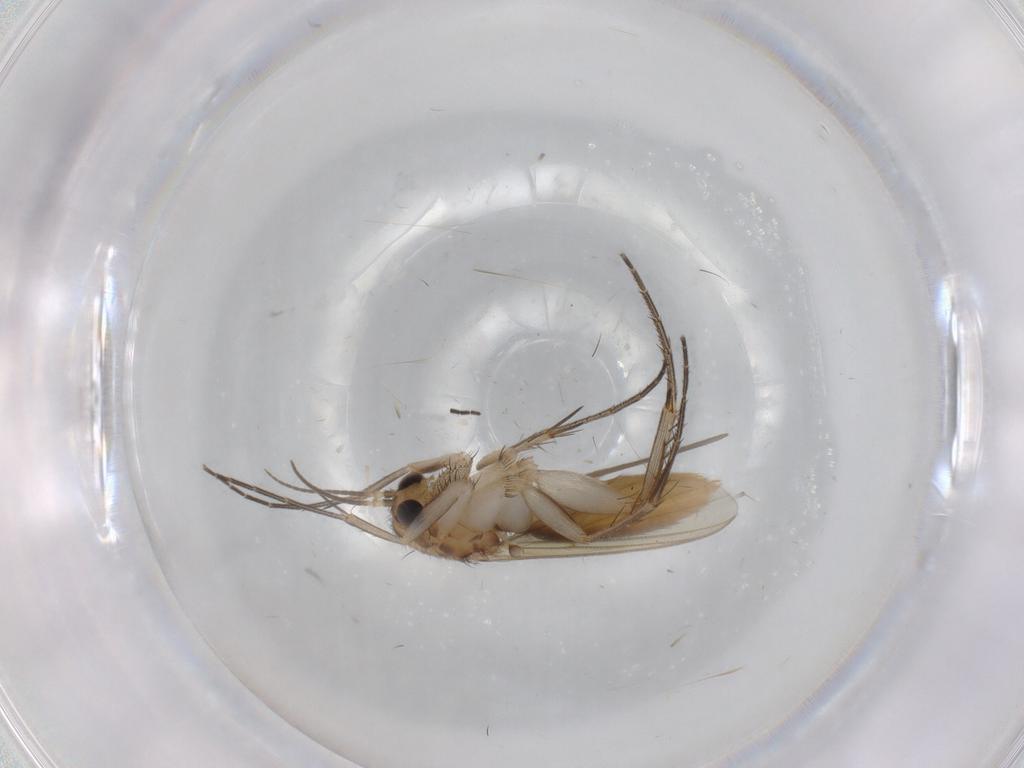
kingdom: Animalia
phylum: Arthropoda
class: Insecta
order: Diptera
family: Mycetophilidae
